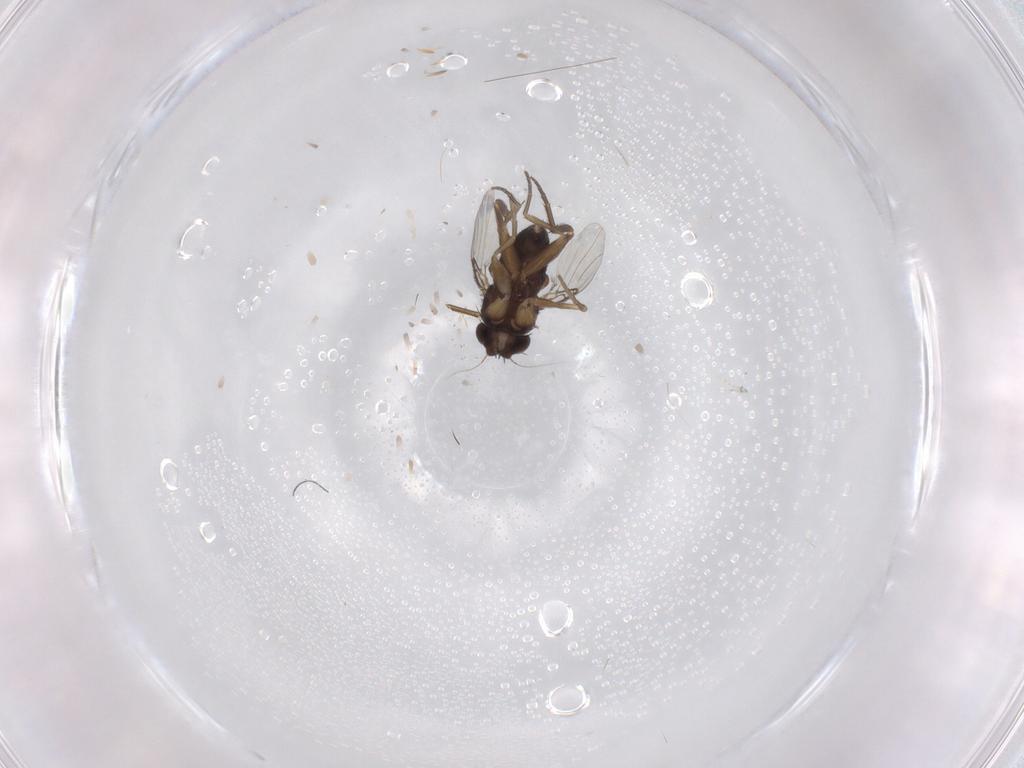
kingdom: Animalia
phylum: Arthropoda
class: Insecta
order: Diptera
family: Phoridae
